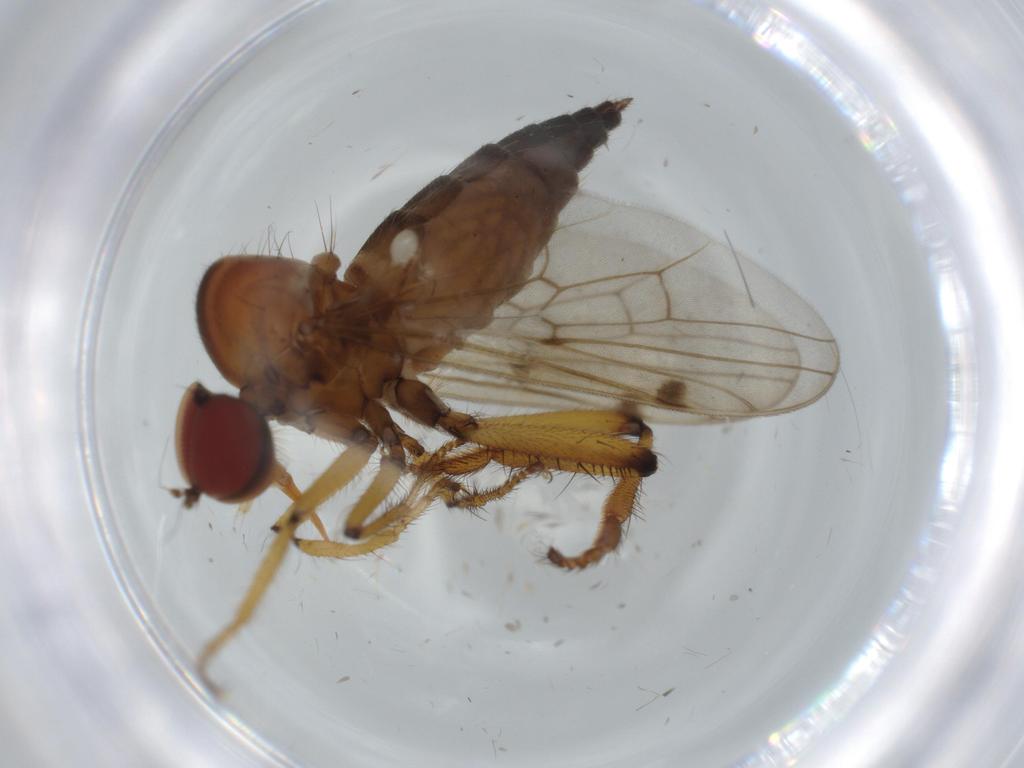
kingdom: Animalia
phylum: Arthropoda
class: Insecta
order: Diptera
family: Hybotidae
